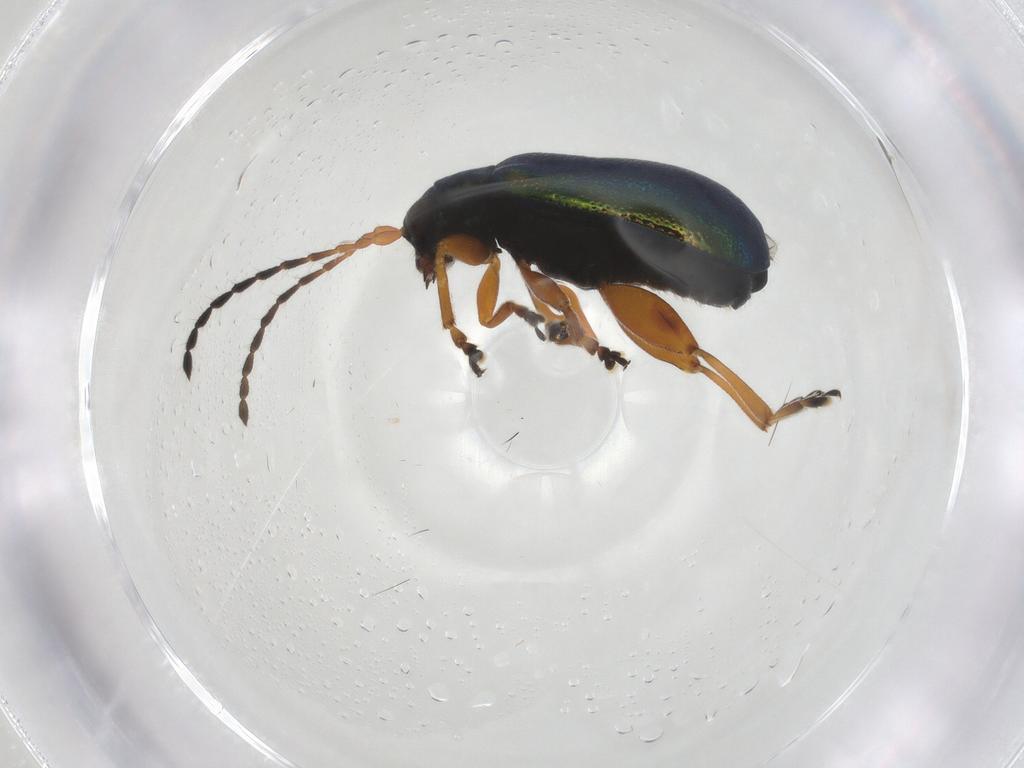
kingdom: Animalia
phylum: Arthropoda
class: Insecta
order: Coleoptera
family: Chrysomelidae
